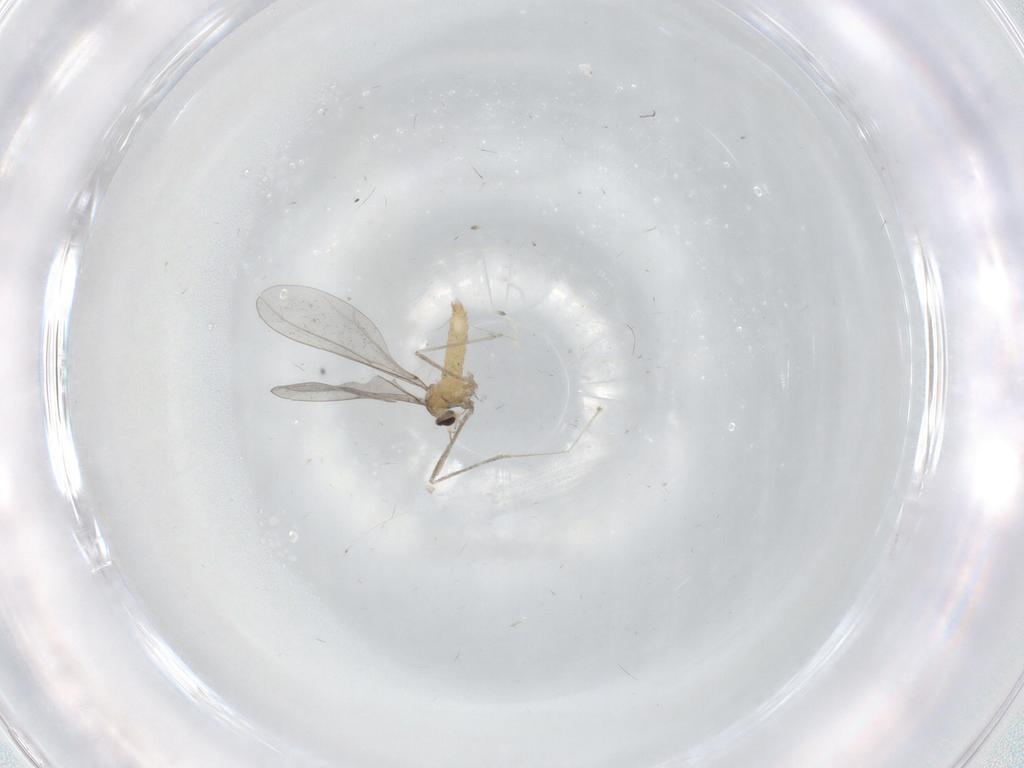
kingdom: Animalia
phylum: Arthropoda
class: Insecta
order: Diptera
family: Cecidomyiidae
